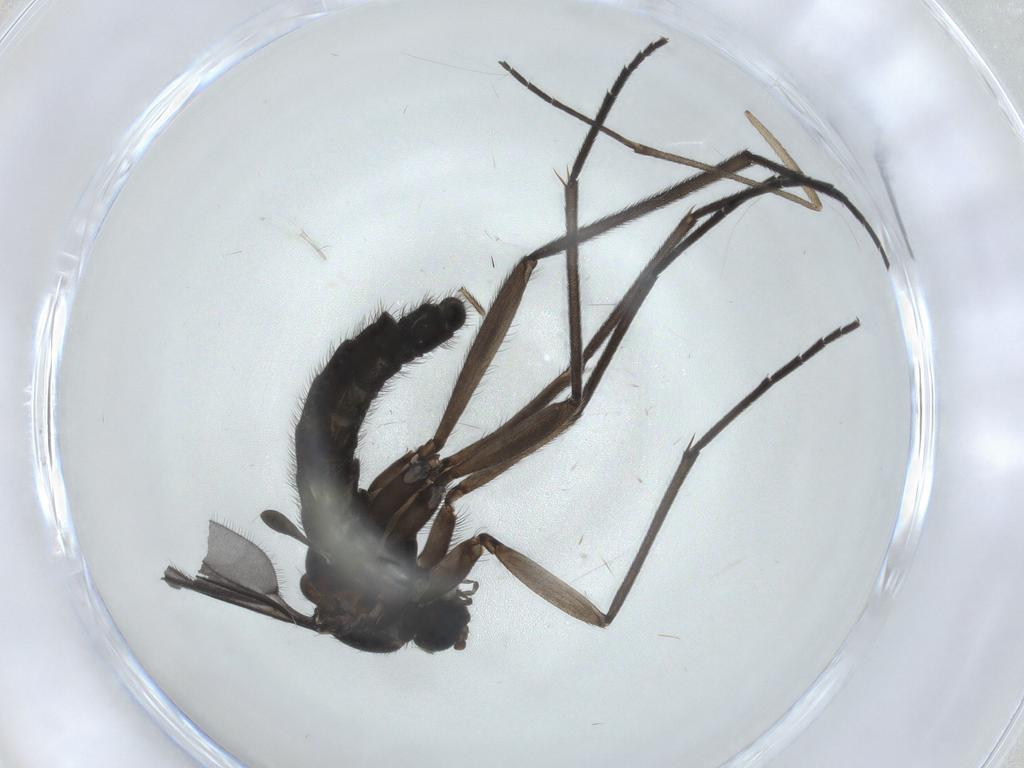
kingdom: Animalia
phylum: Arthropoda
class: Insecta
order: Diptera
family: Sciaridae
